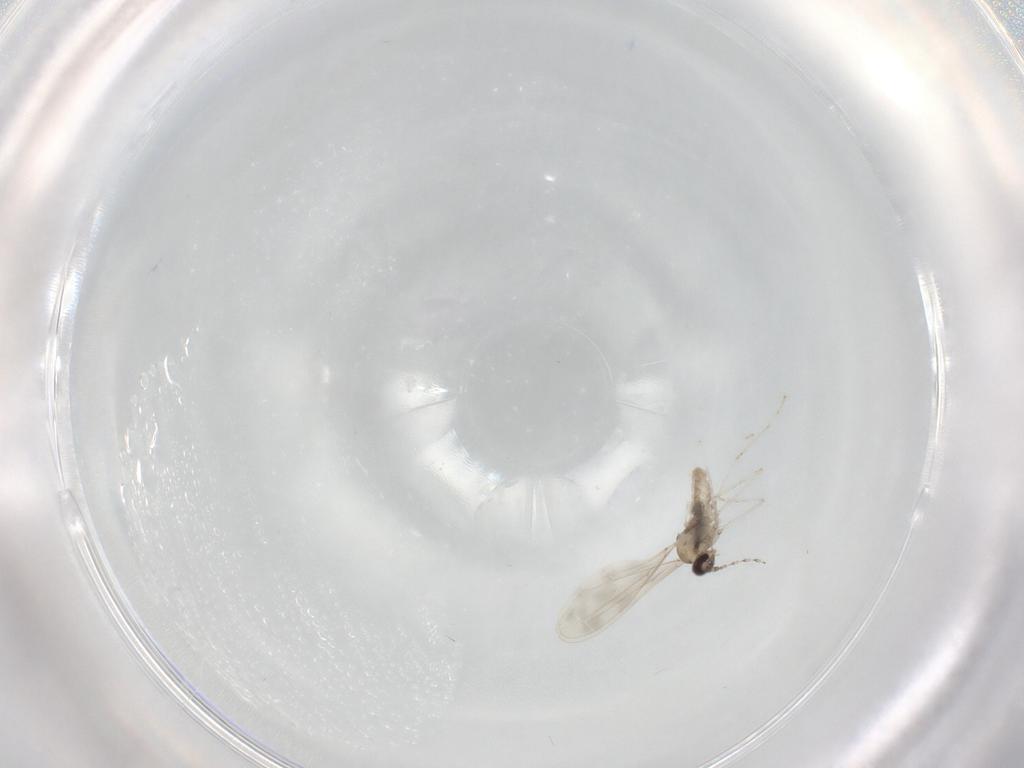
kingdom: Animalia
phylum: Arthropoda
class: Insecta
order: Diptera
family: Cecidomyiidae
